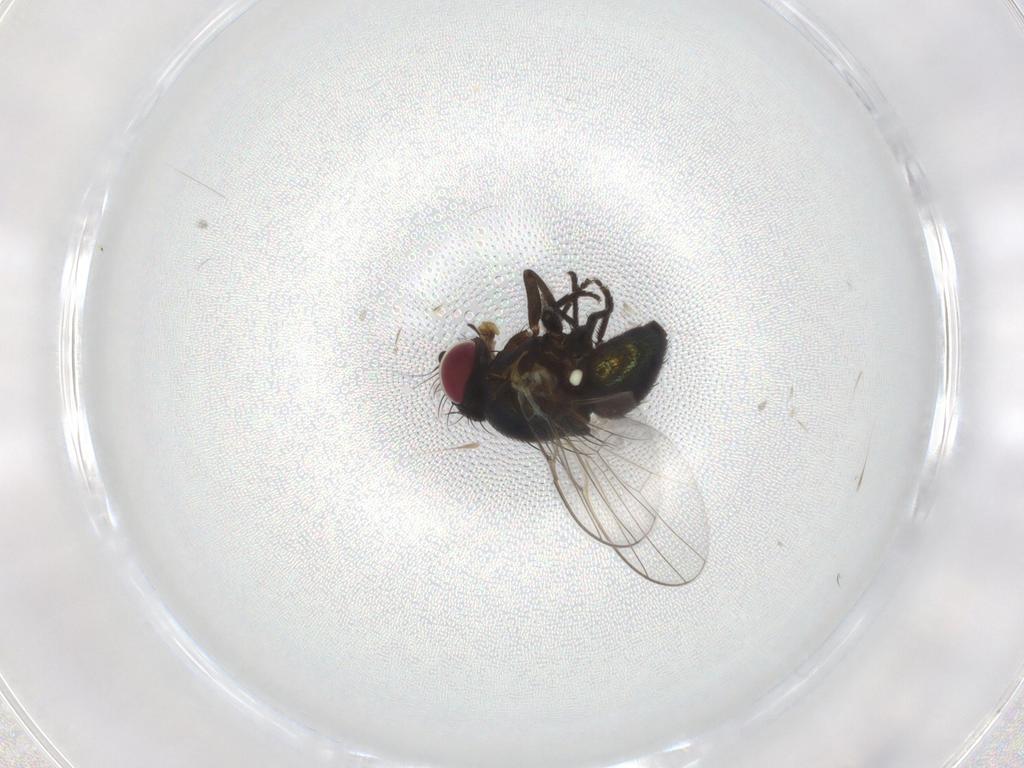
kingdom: Animalia
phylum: Arthropoda
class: Insecta
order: Diptera
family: Agromyzidae
